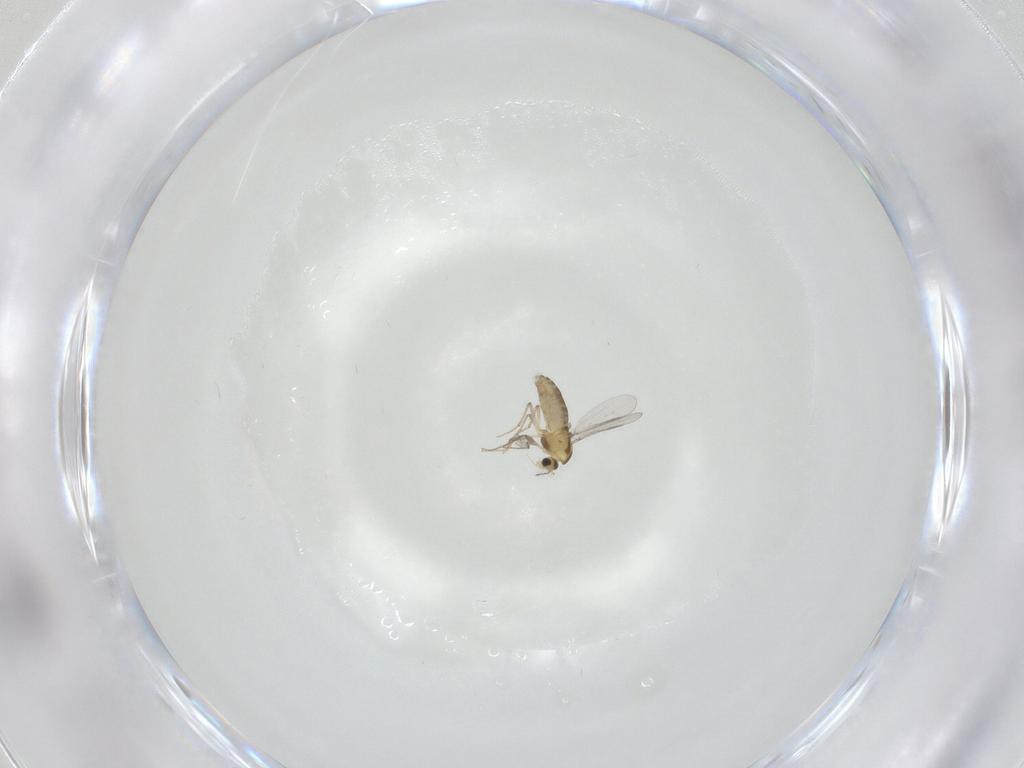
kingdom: Animalia
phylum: Arthropoda
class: Insecta
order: Diptera
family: Chironomidae
